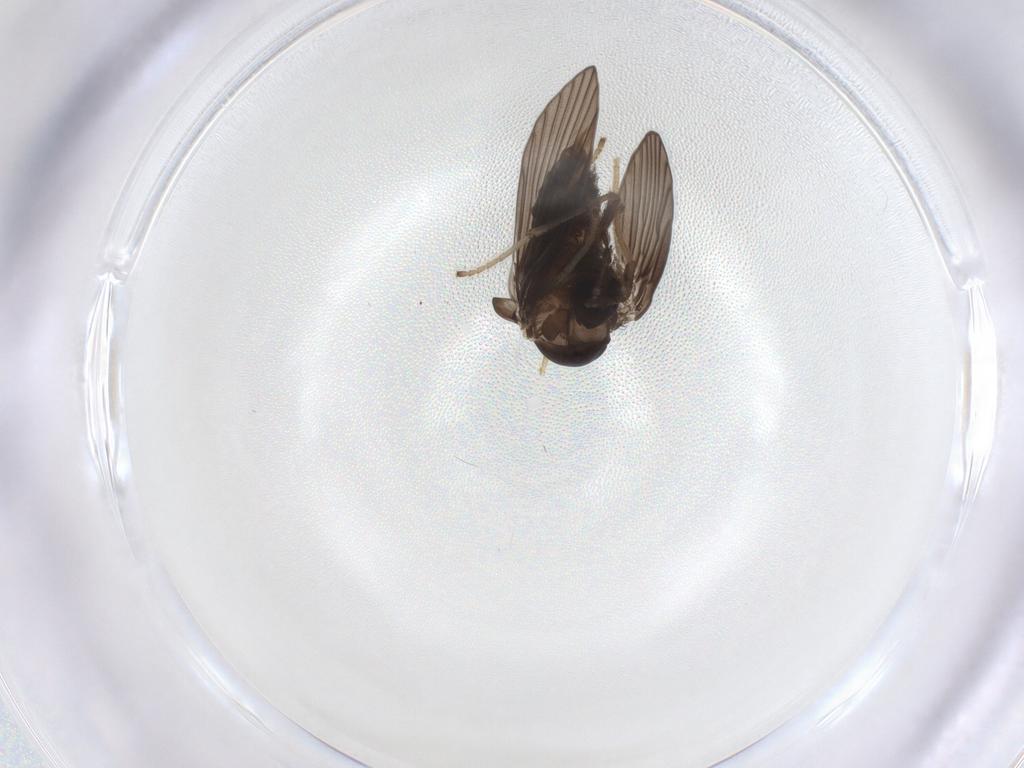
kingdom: Animalia
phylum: Arthropoda
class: Insecta
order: Diptera
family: Psychodidae
